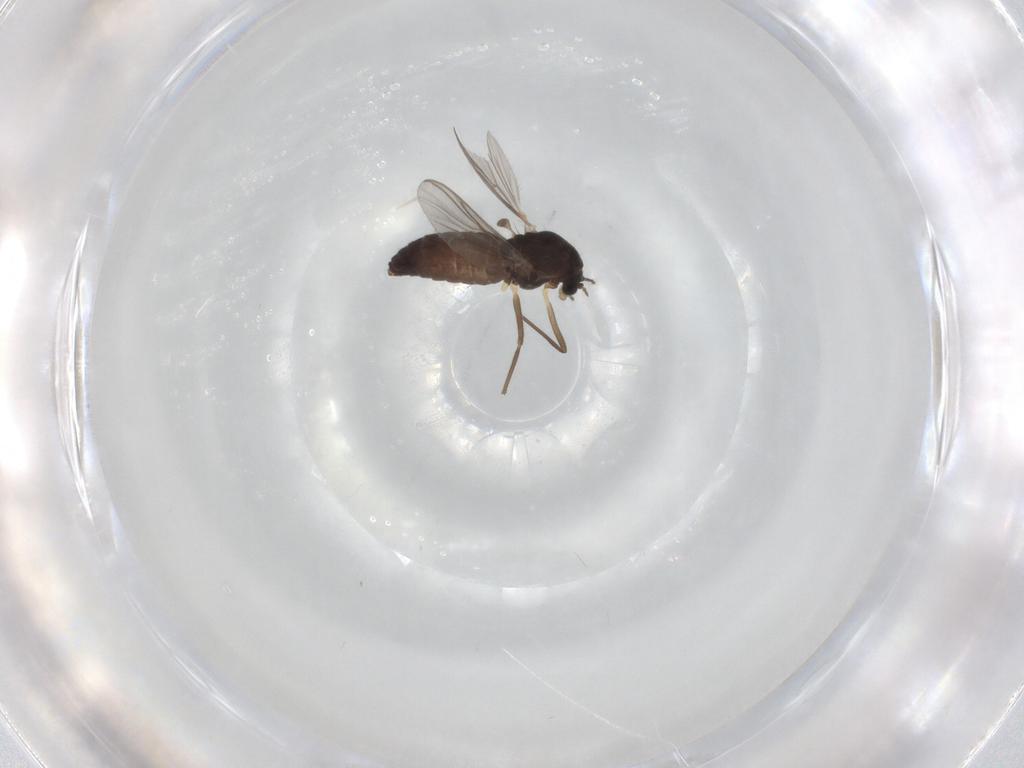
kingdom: Animalia
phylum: Arthropoda
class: Insecta
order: Diptera
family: Chironomidae
